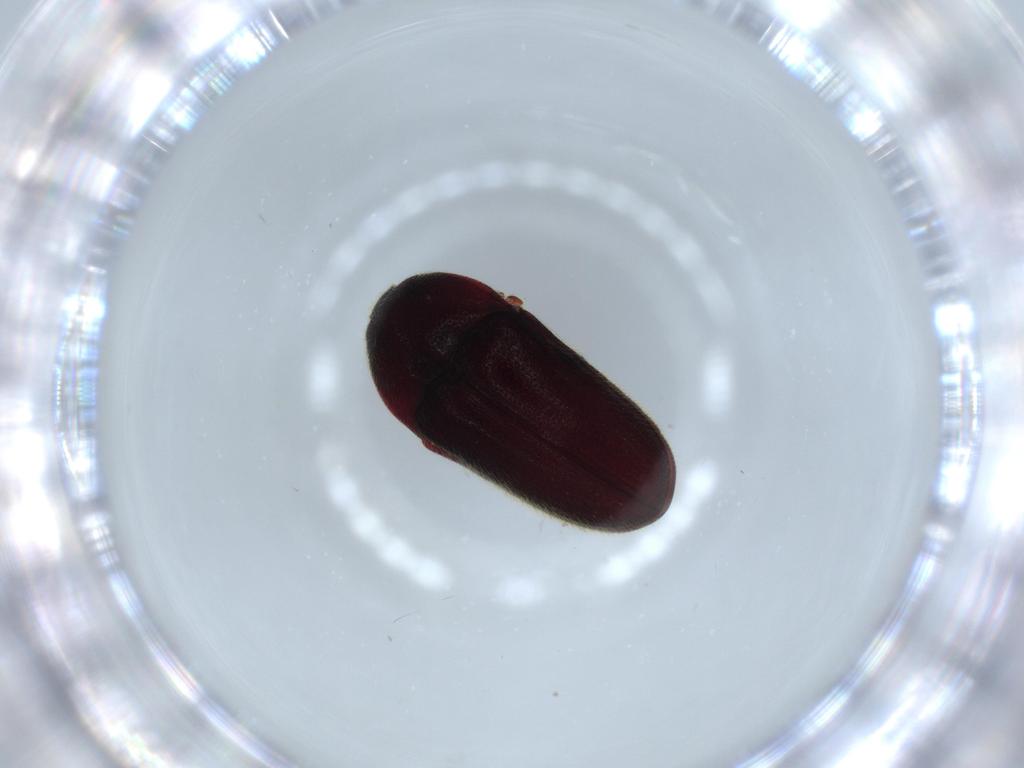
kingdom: Animalia
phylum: Arthropoda
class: Insecta
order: Coleoptera
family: Throscidae
